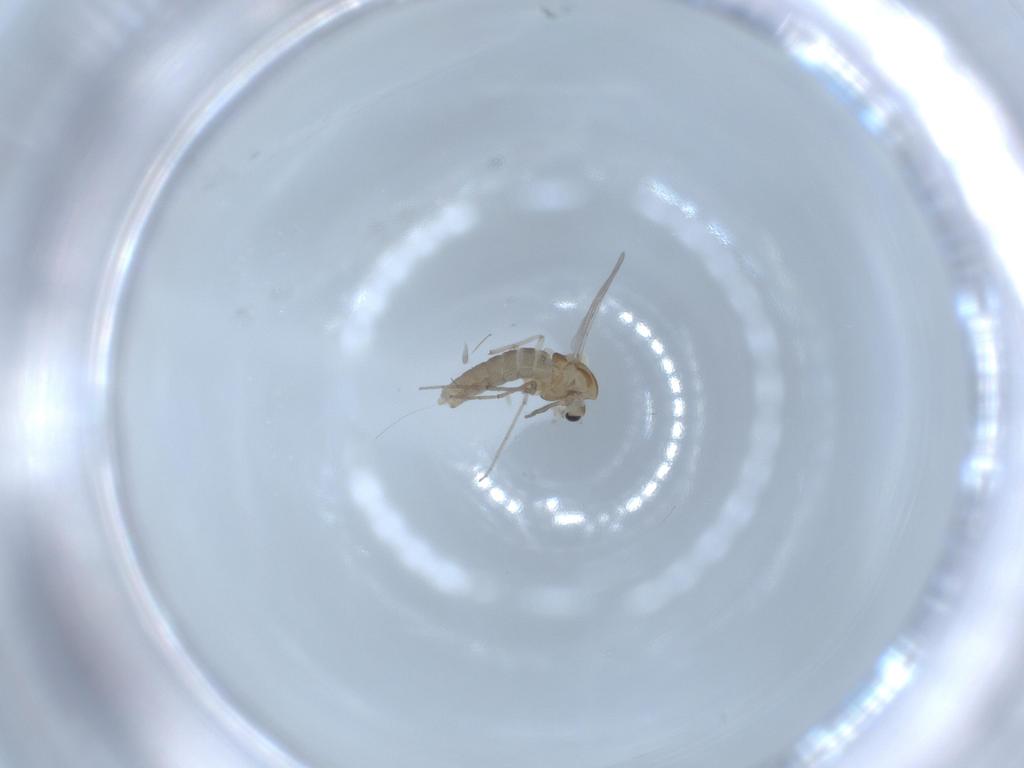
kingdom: Animalia
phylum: Arthropoda
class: Insecta
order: Diptera
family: Chironomidae
